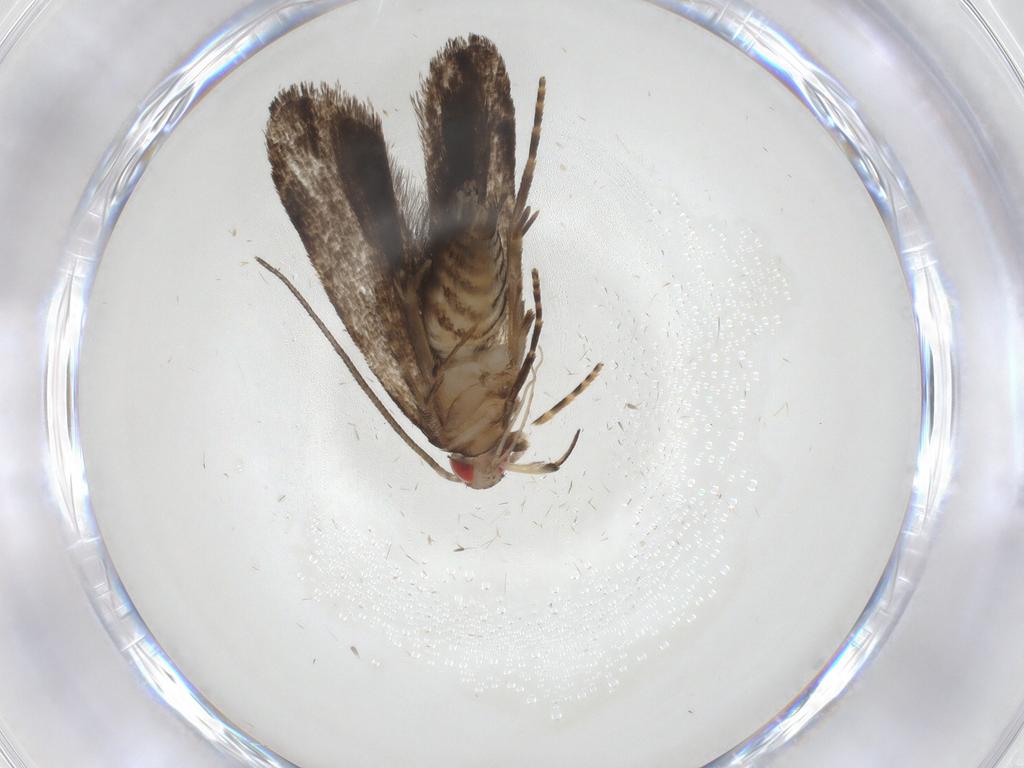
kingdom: Animalia
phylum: Arthropoda
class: Insecta
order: Lepidoptera
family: Gelechiidae
